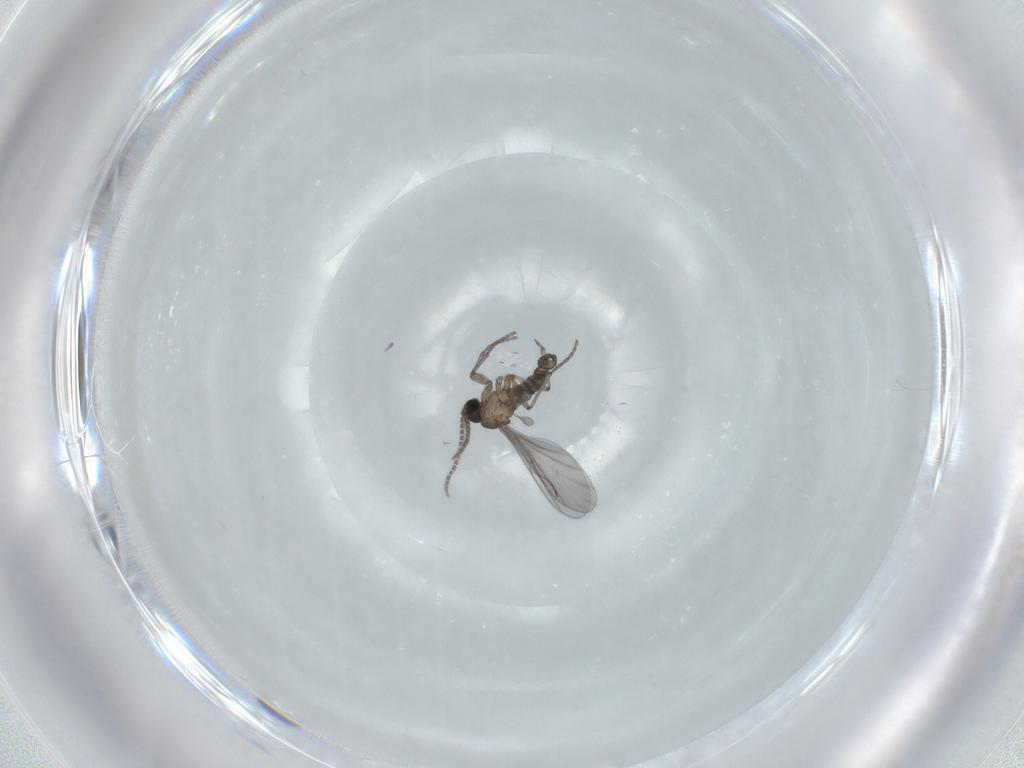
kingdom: Animalia
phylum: Arthropoda
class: Insecta
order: Diptera
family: Sciaridae
